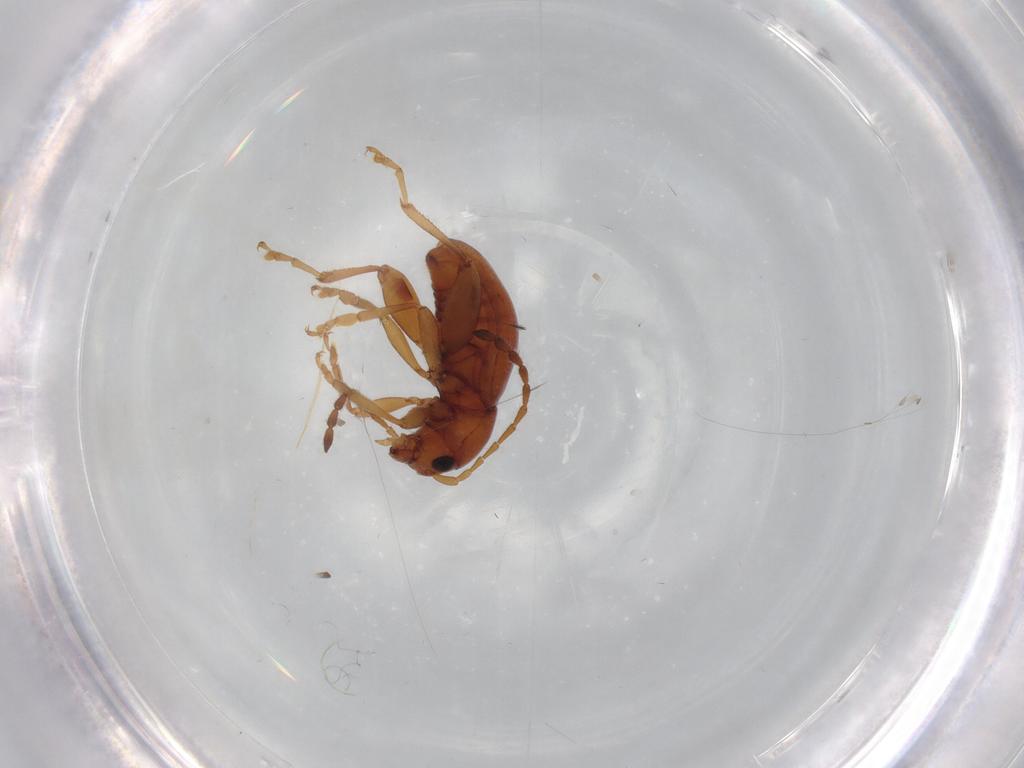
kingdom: Animalia
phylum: Arthropoda
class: Insecta
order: Coleoptera
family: Chrysomelidae
